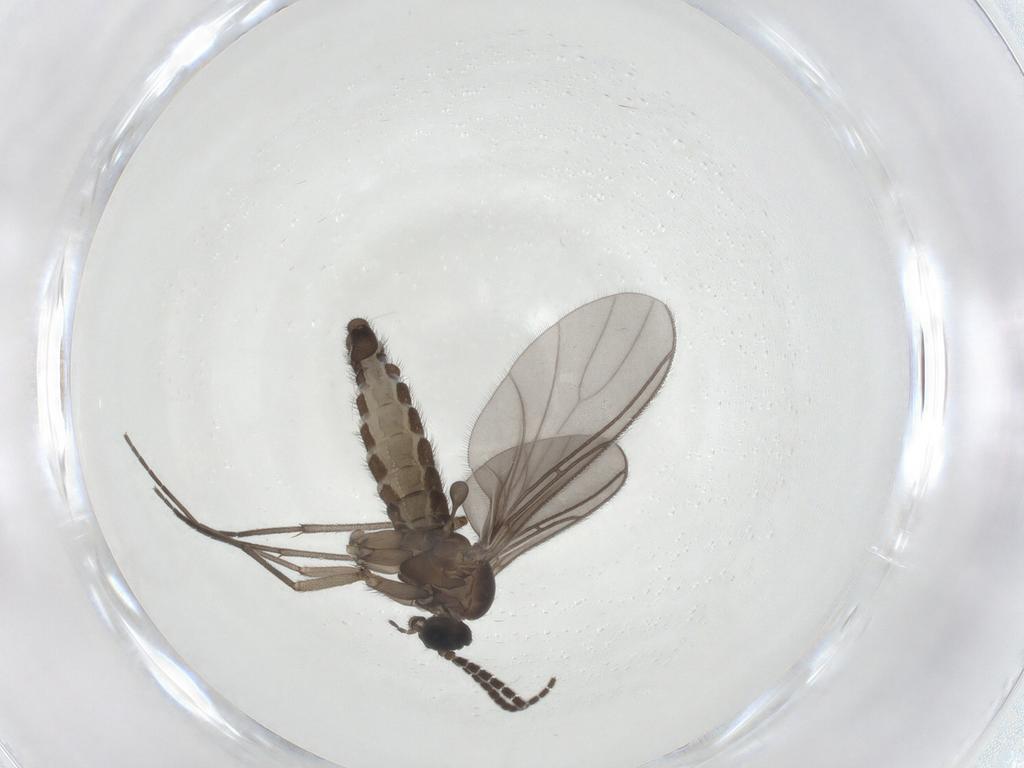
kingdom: Animalia
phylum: Arthropoda
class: Insecta
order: Diptera
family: Sciaridae
